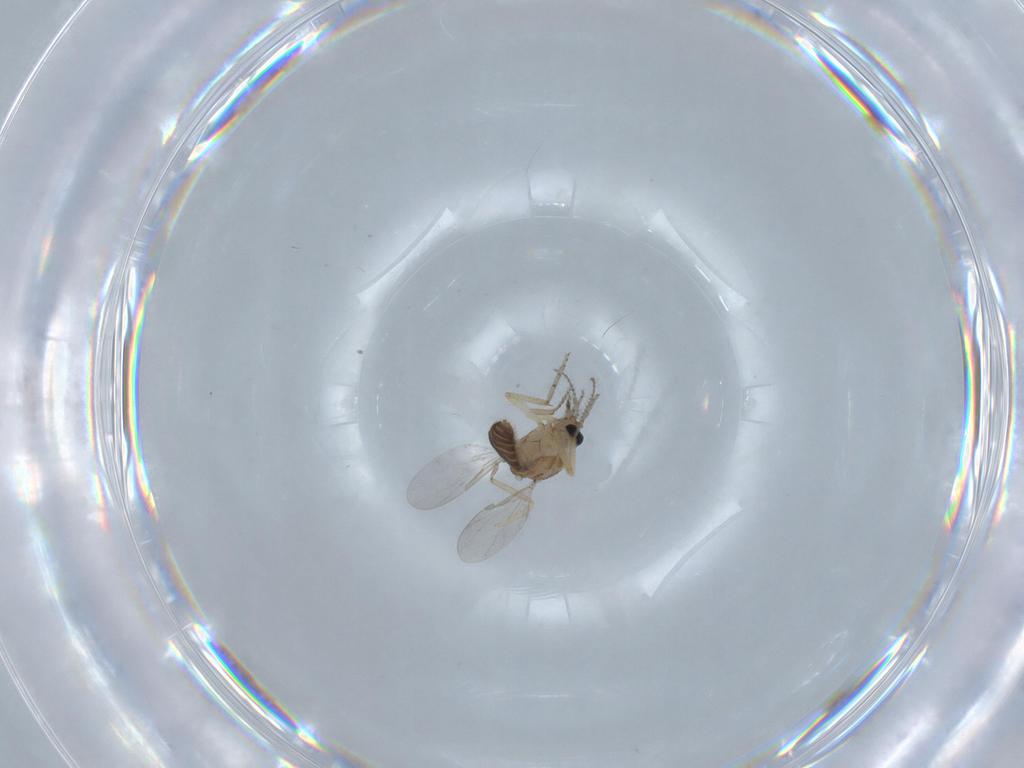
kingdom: Animalia
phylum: Arthropoda
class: Insecta
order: Diptera
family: Ceratopogonidae
